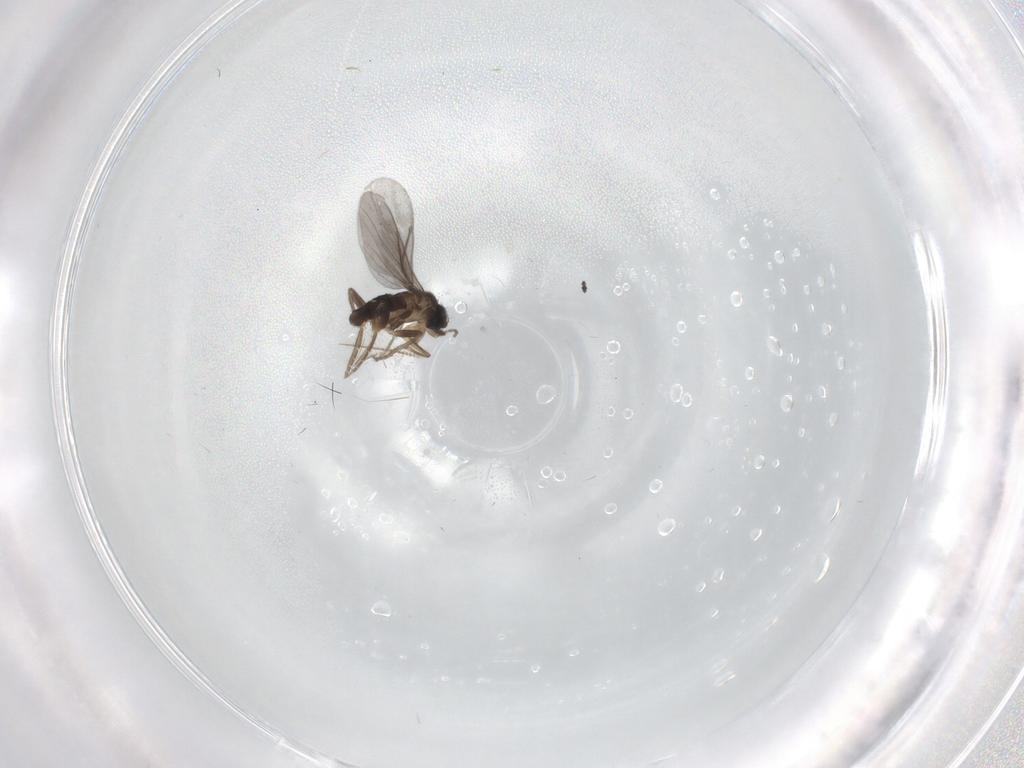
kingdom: Animalia
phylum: Arthropoda
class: Insecta
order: Diptera
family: Cecidomyiidae
